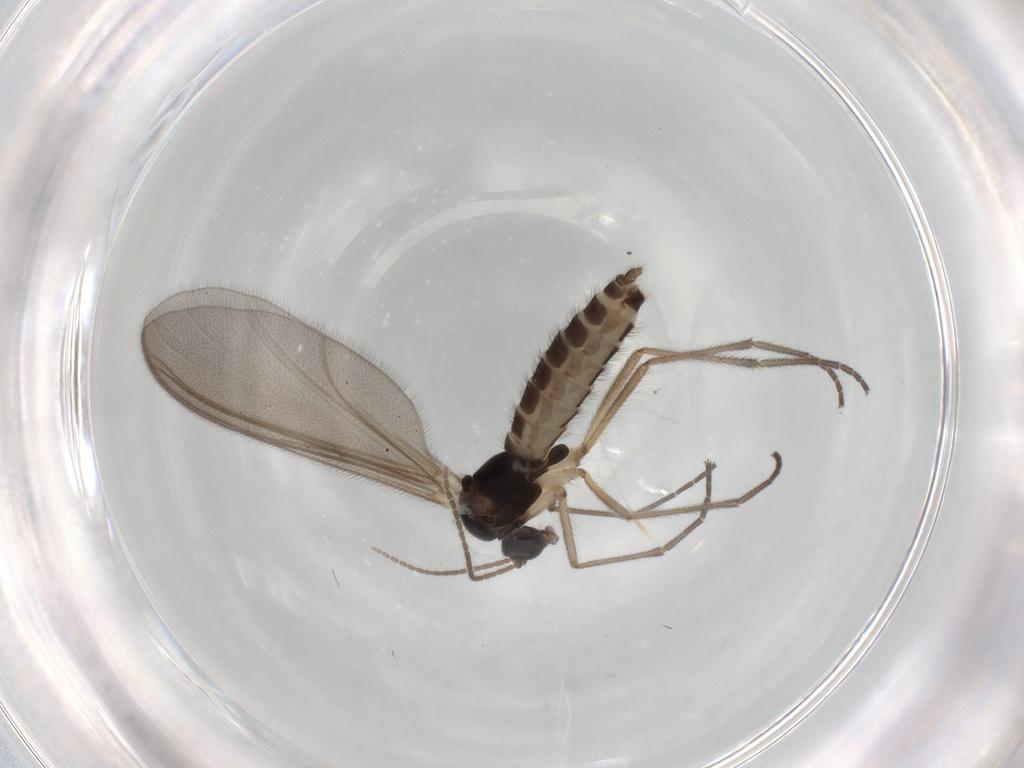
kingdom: Animalia
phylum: Arthropoda
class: Insecta
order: Diptera
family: Mycetophilidae
